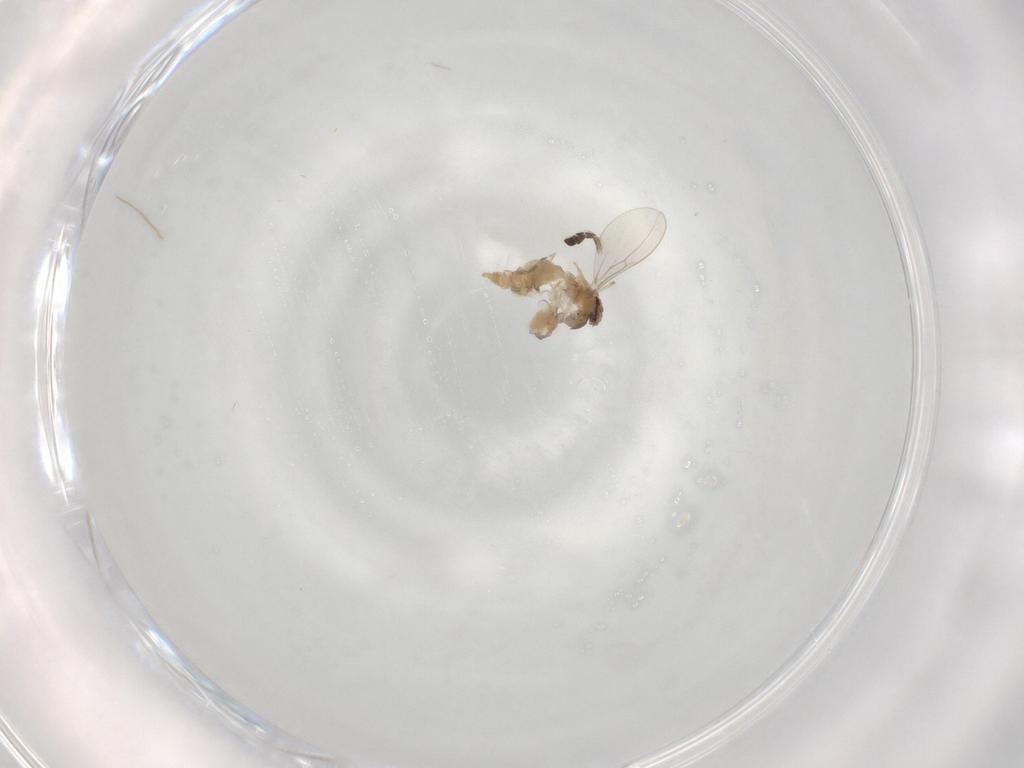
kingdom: Animalia
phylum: Arthropoda
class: Insecta
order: Diptera
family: Cecidomyiidae
